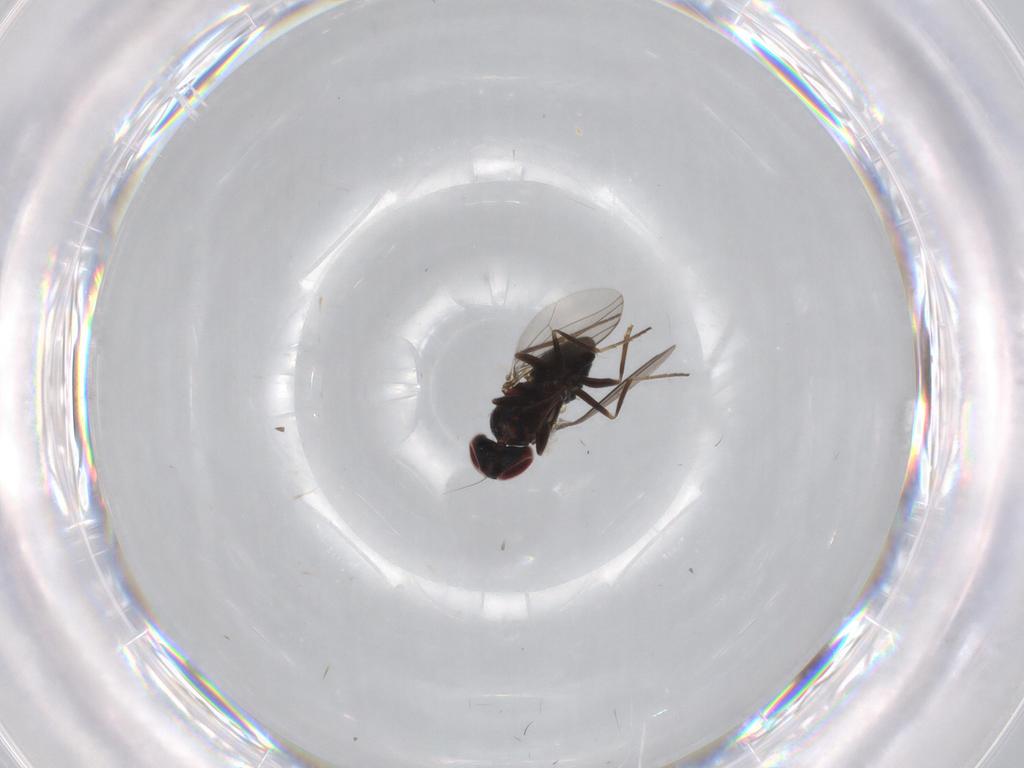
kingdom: Animalia
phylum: Arthropoda
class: Insecta
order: Diptera
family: Dolichopodidae
